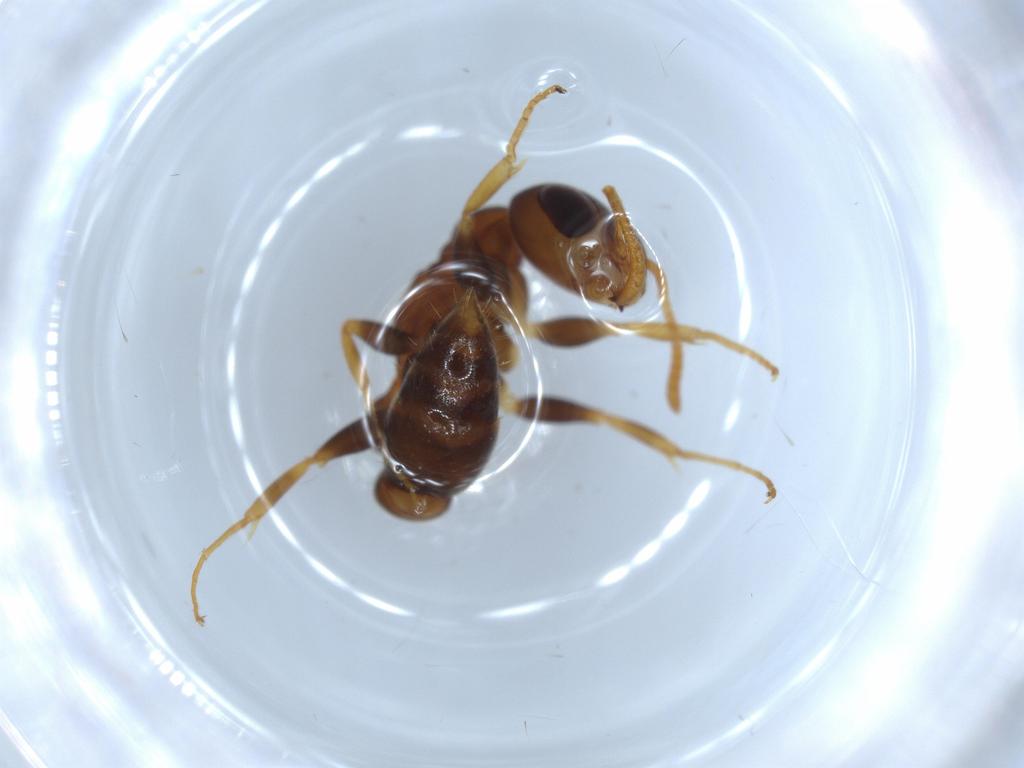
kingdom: Animalia
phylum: Arthropoda
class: Insecta
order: Hymenoptera
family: Formicidae
